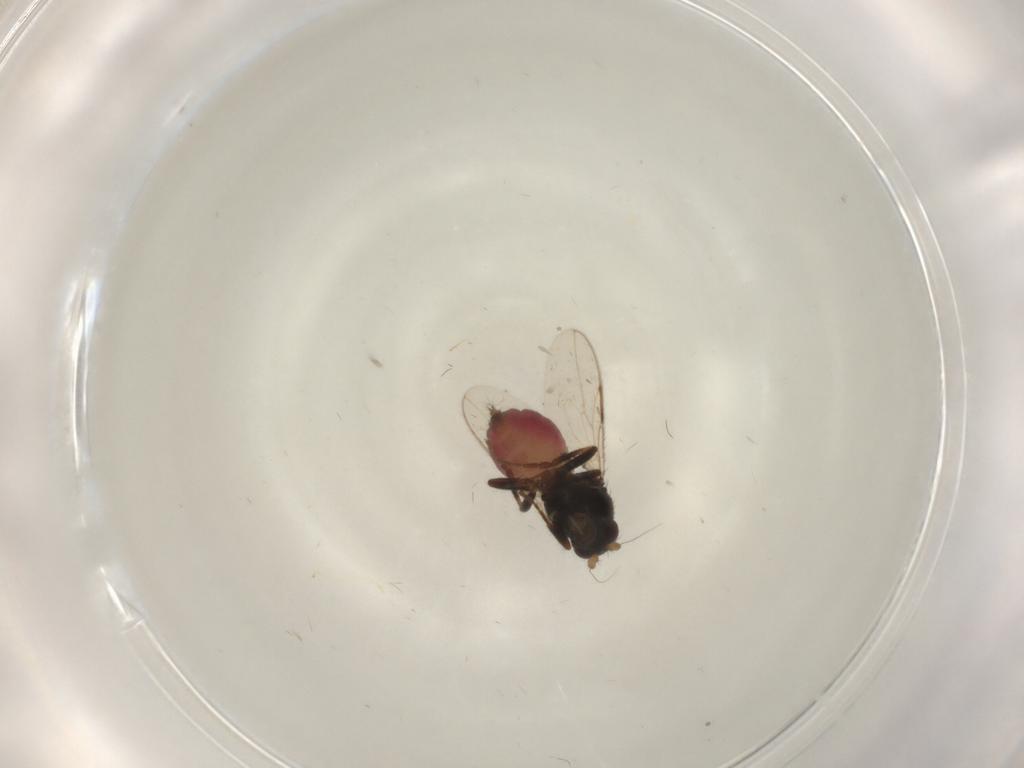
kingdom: Animalia
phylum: Arthropoda
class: Insecta
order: Diptera
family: Sphaeroceridae
